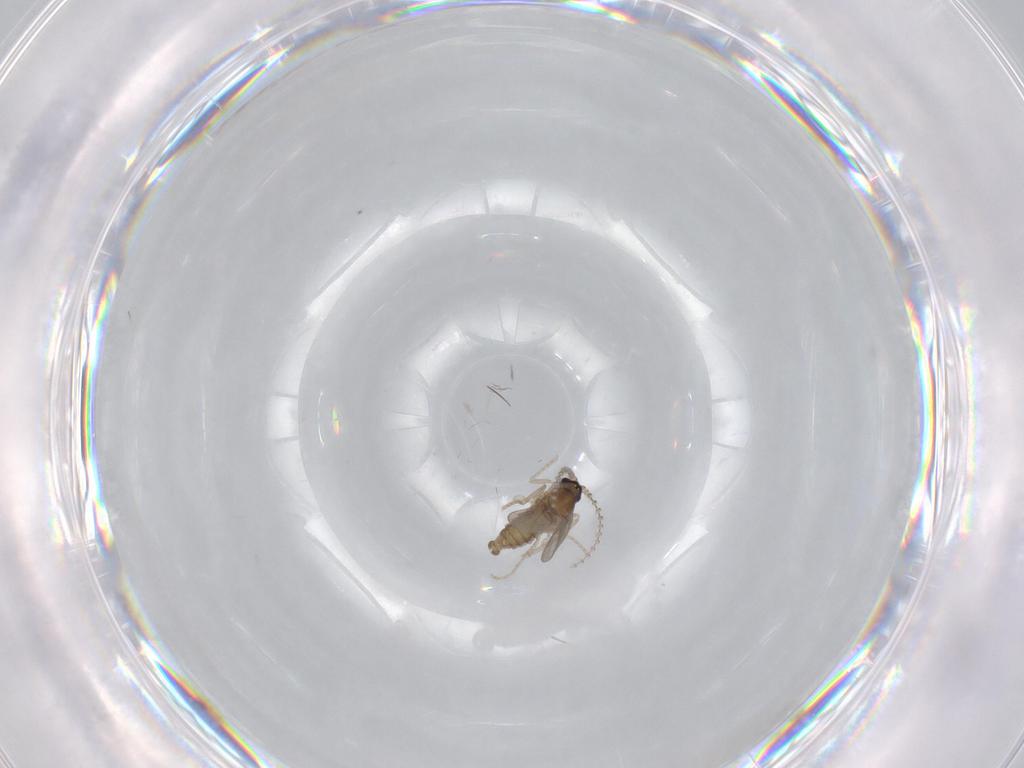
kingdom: Animalia
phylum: Arthropoda
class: Insecta
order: Diptera
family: Cecidomyiidae
